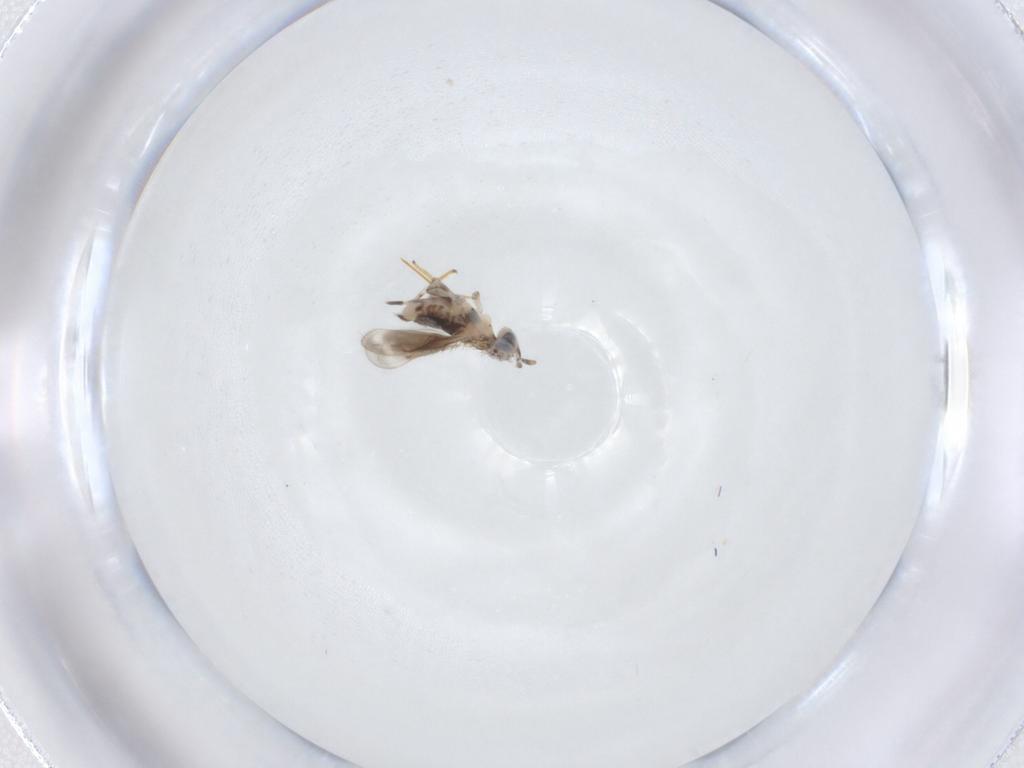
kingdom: Animalia
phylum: Arthropoda
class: Insecta
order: Hymenoptera
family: Aphelinidae
